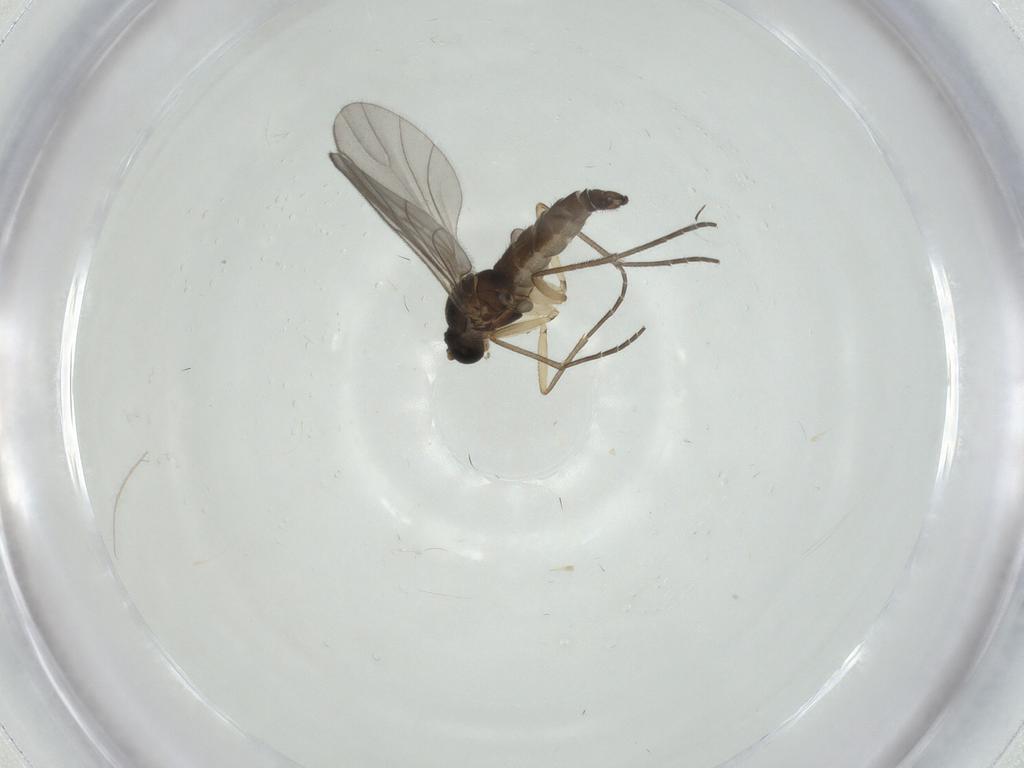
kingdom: Animalia
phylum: Arthropoda
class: Insecta
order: Diptera
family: Sciaridae
